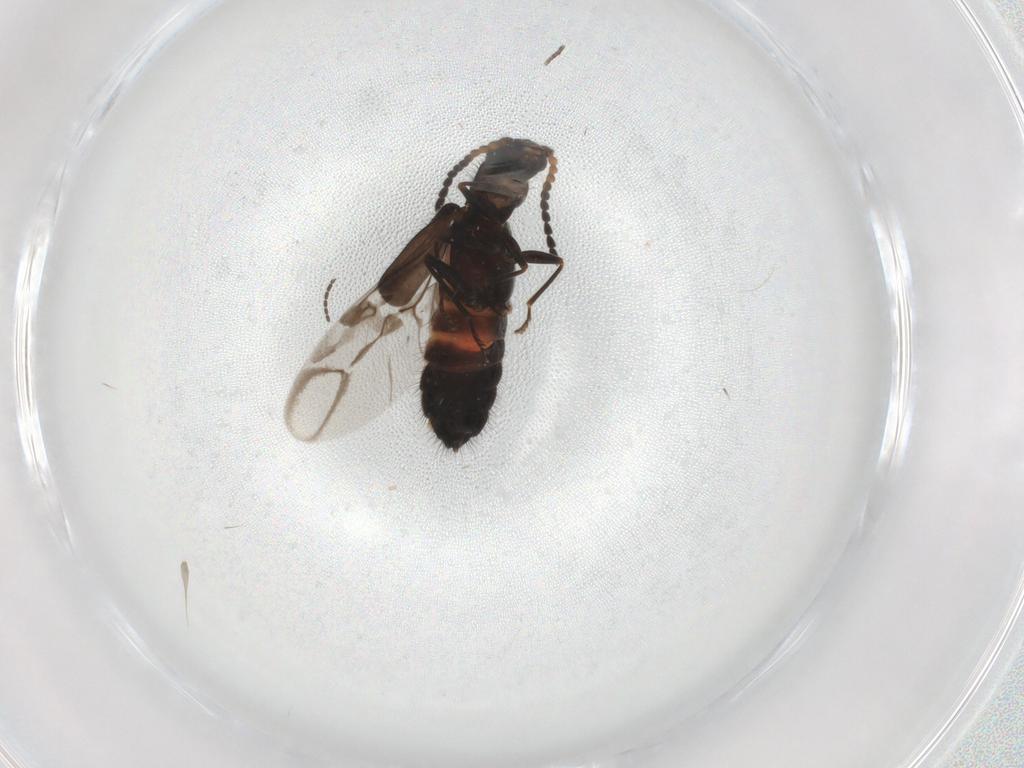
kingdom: Animalia
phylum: Arthropoda
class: Insecta
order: Coleoptera
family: Melyridae
